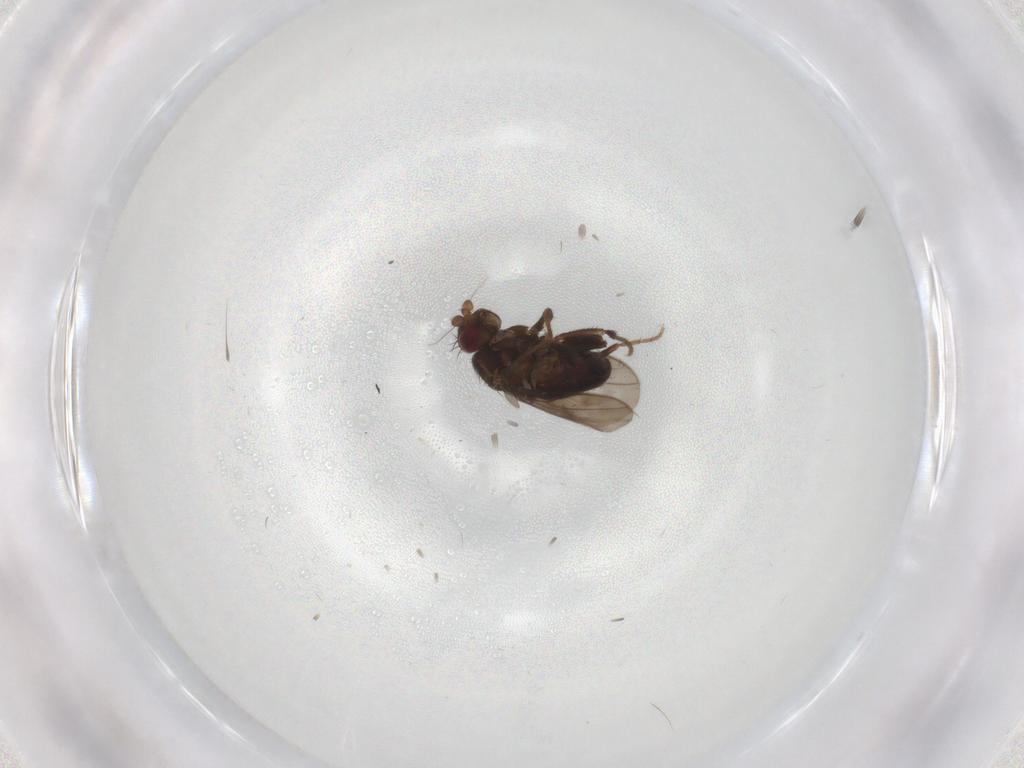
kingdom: Animalia
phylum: Arthropoda
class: Insecta
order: Diptera
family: Sphaeroceridae
